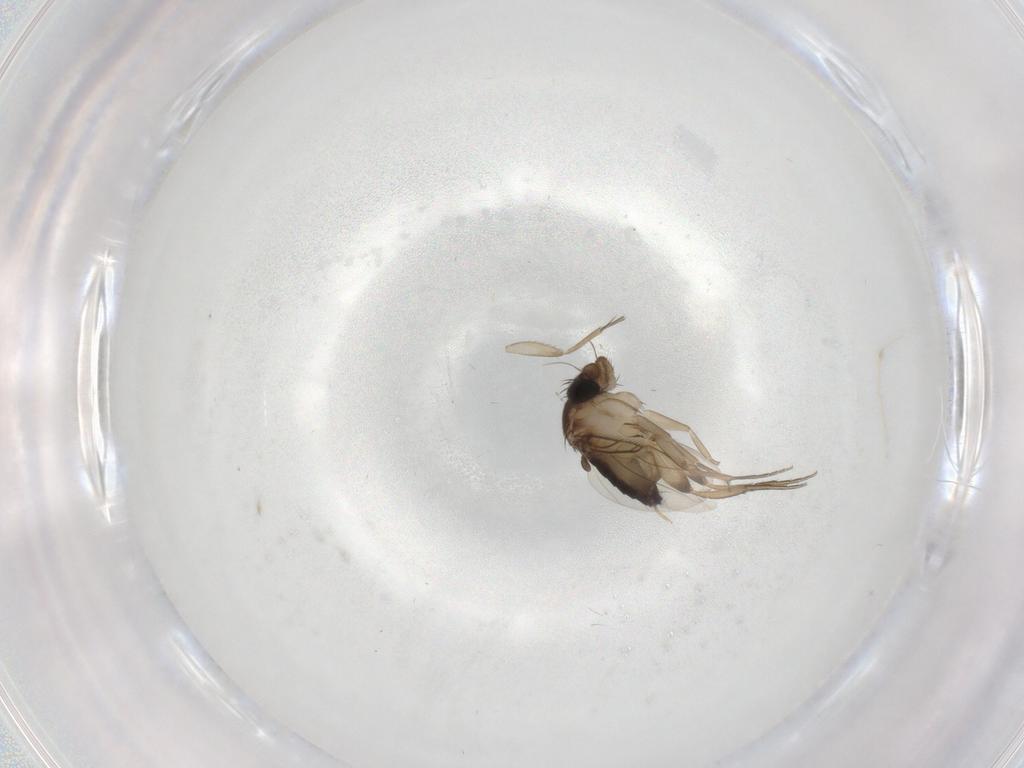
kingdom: Animalia
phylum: Arthropoda
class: Insecta
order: Diptera
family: Phoridae
